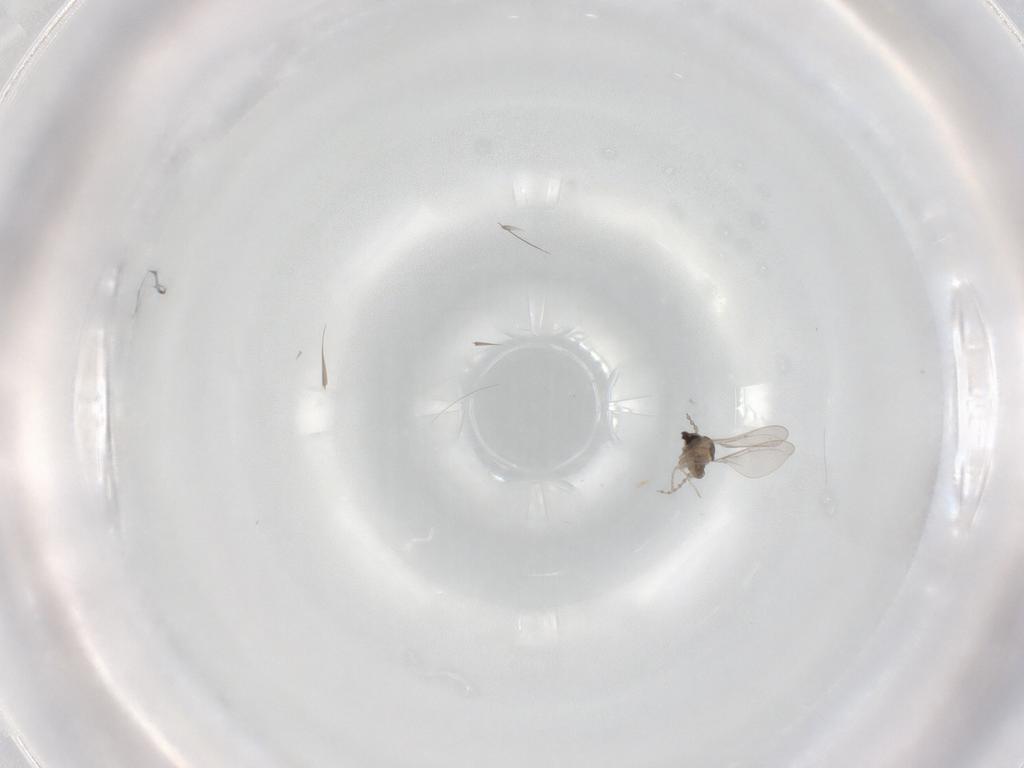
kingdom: Animalia
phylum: Arthropoda
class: Insecta
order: Diptera
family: Cecidomyiidae
